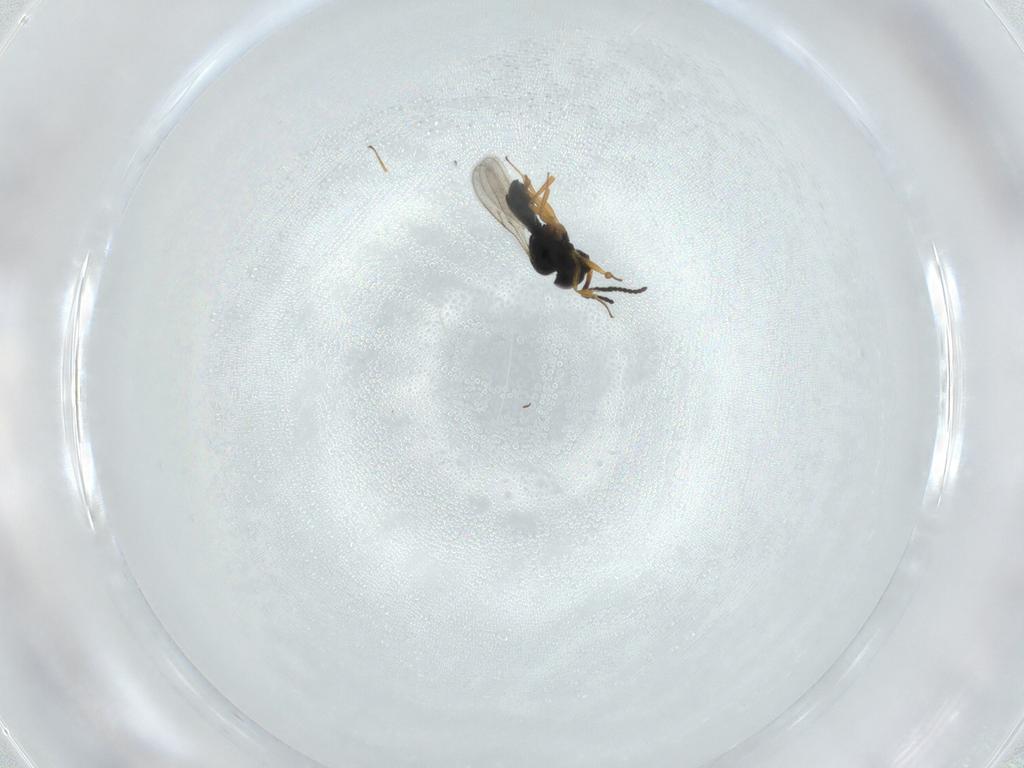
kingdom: Animalia
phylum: Arthropoda
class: Insecta
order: Hymenoptera
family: Scelionidae
